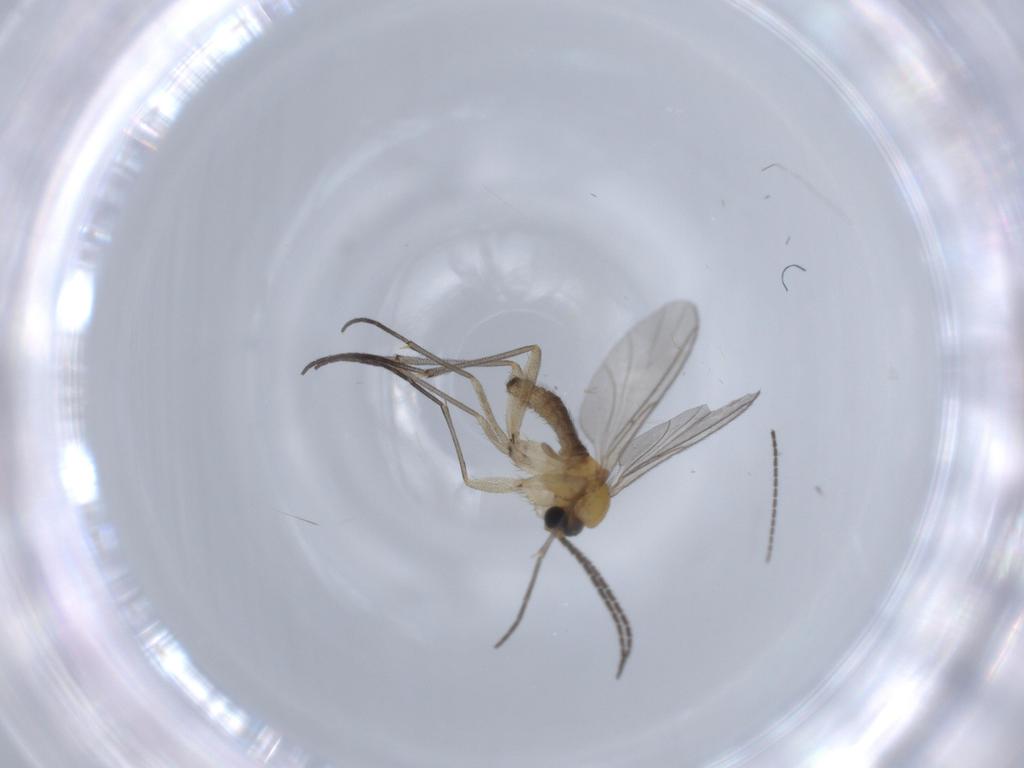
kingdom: Animalia
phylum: Arthropoda
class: Insecta
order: Diptera
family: Sciaridae
